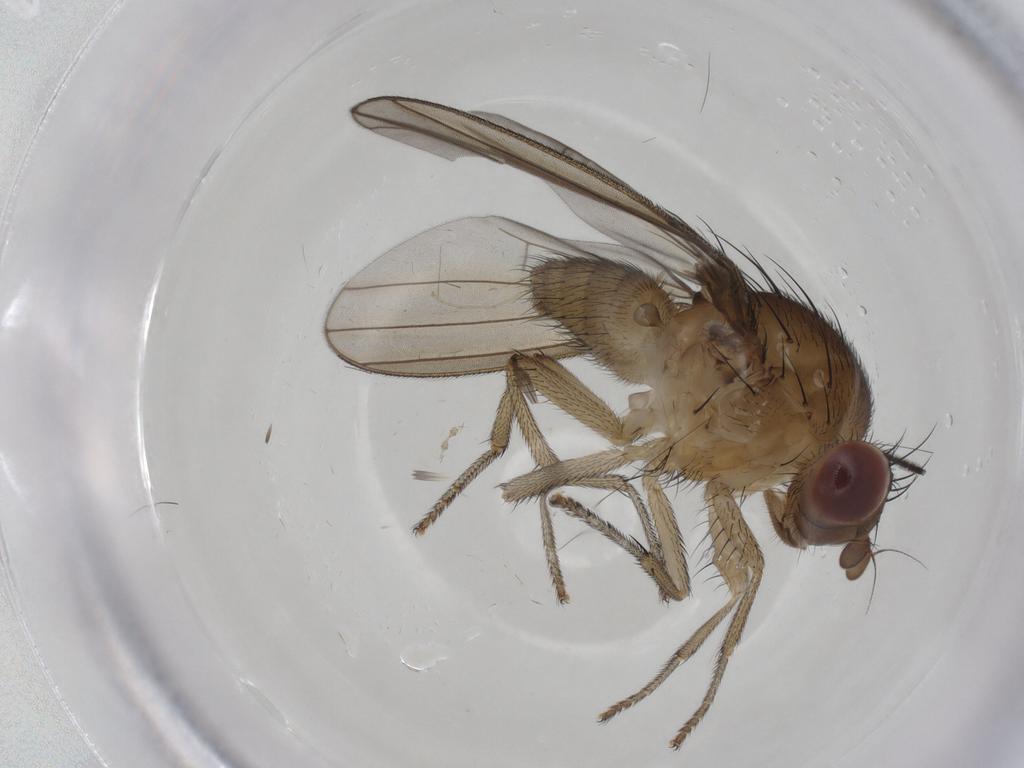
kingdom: Animalia
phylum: Arthropoda
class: Insecta
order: Diptera
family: Sciaridae
